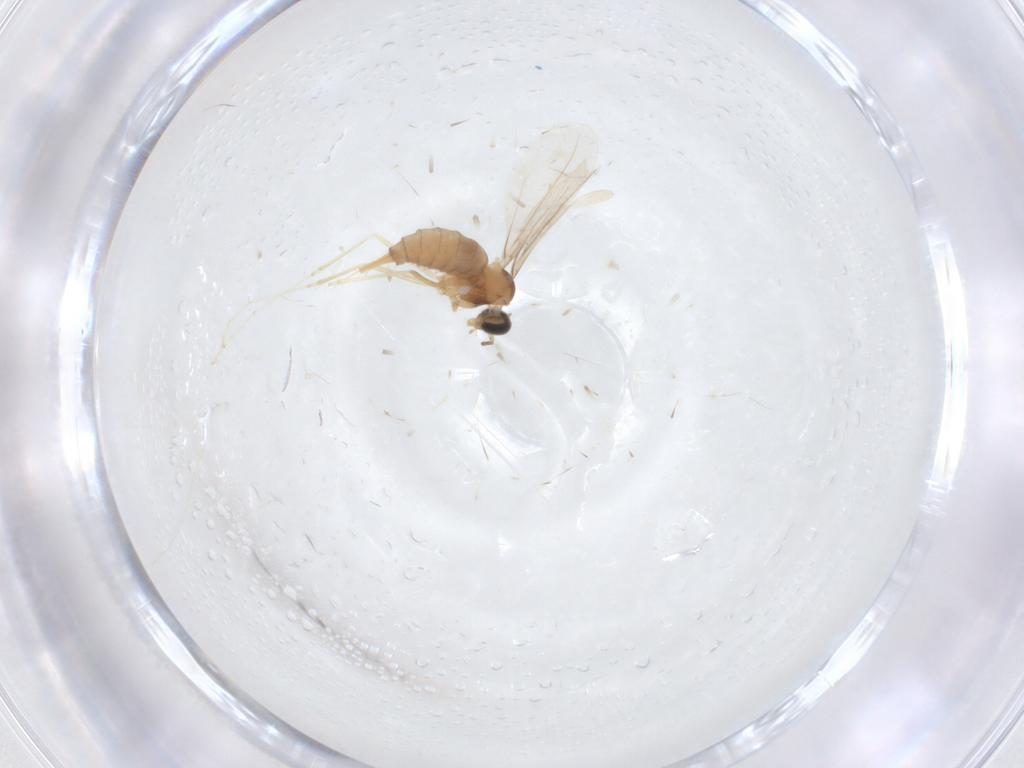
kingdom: Animalia
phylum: Arthropoda
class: Insecta
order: Diptera
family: Cecidomyiidae
